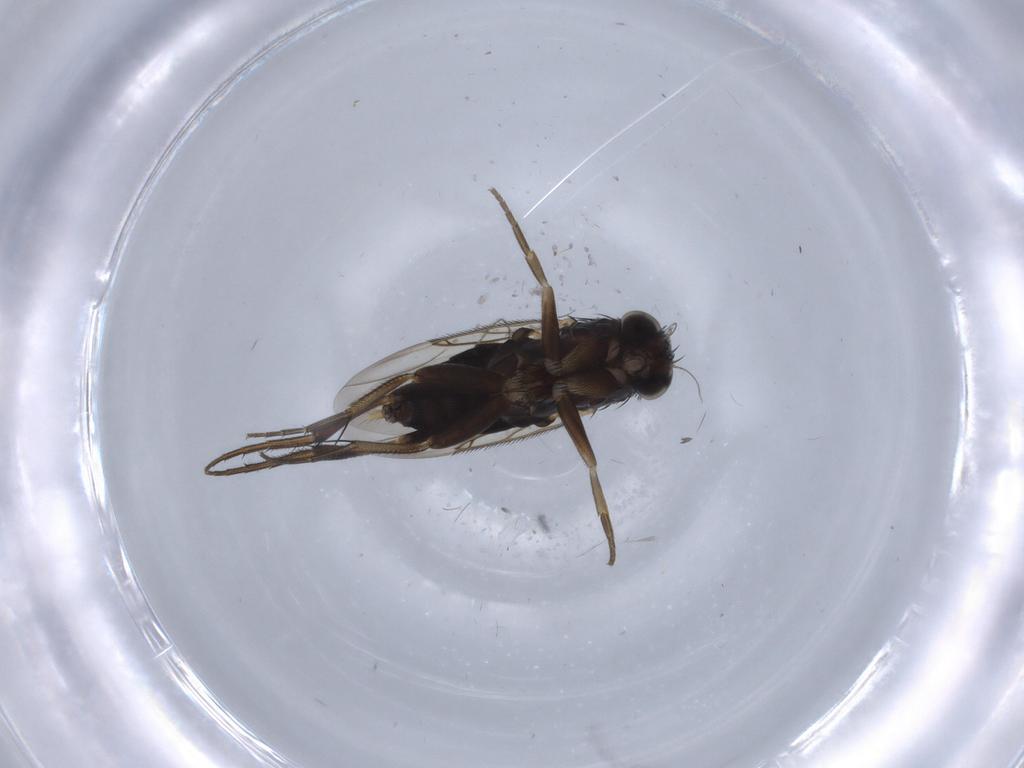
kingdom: Animalia
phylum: Arthropoda
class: Insecta
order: Diptera
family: Phoridae
